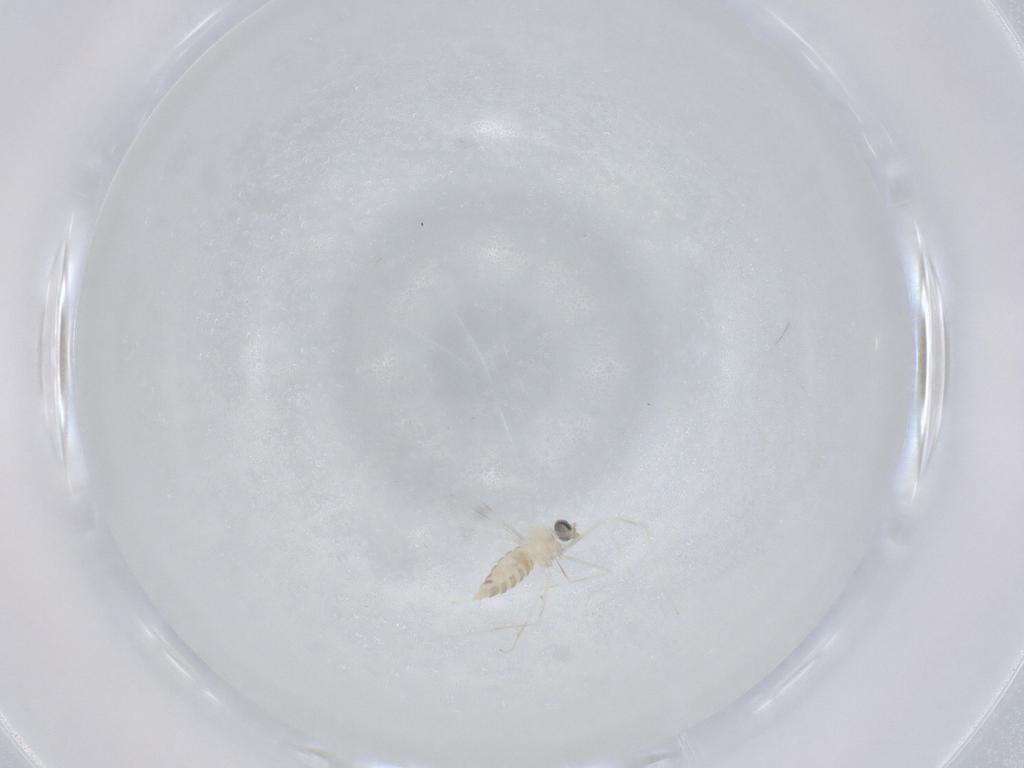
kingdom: Animalia
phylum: Arthropoda
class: Insecta
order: Diptera
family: Cecidomyiidae
